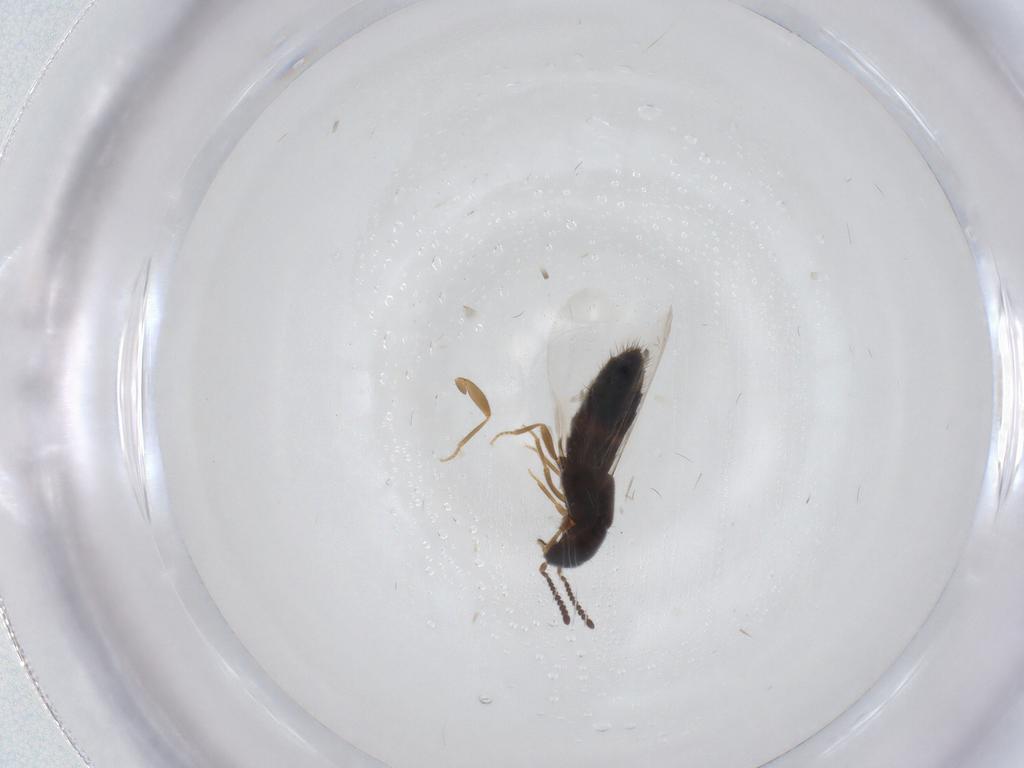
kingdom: Animalia
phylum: Arthropoda
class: Insecta
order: Coleoptera
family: Staphylinidae
